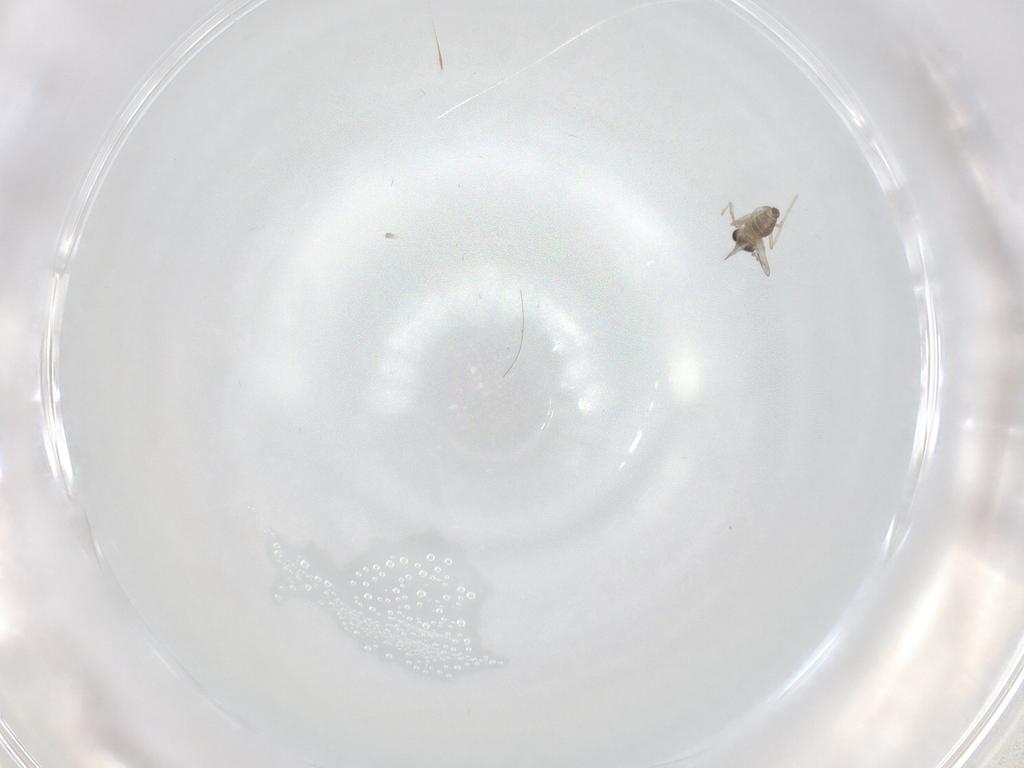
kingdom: Animalia
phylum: Arthropoda
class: Insecta
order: Diptera
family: Cecidomyiidae
